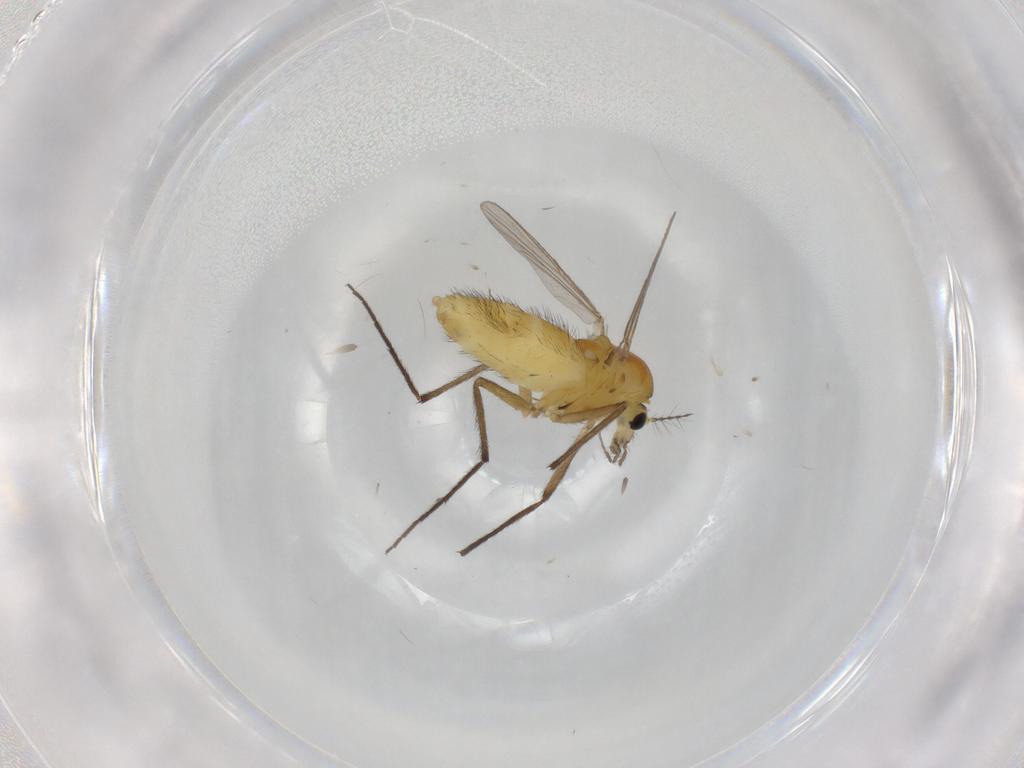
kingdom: Animalia
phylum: Arthropoda
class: Insecta
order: Diptera
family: Chironomidae
